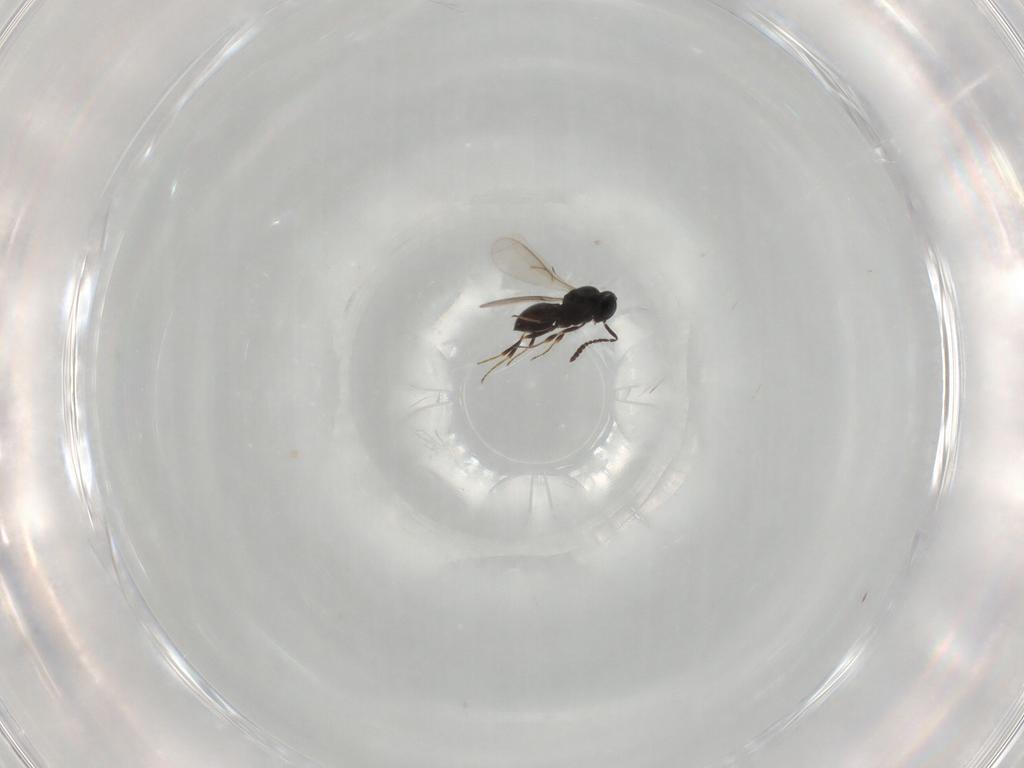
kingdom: Animalia
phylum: Arthropoda
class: Insecta
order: Hymenoptera
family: Scelionidae
